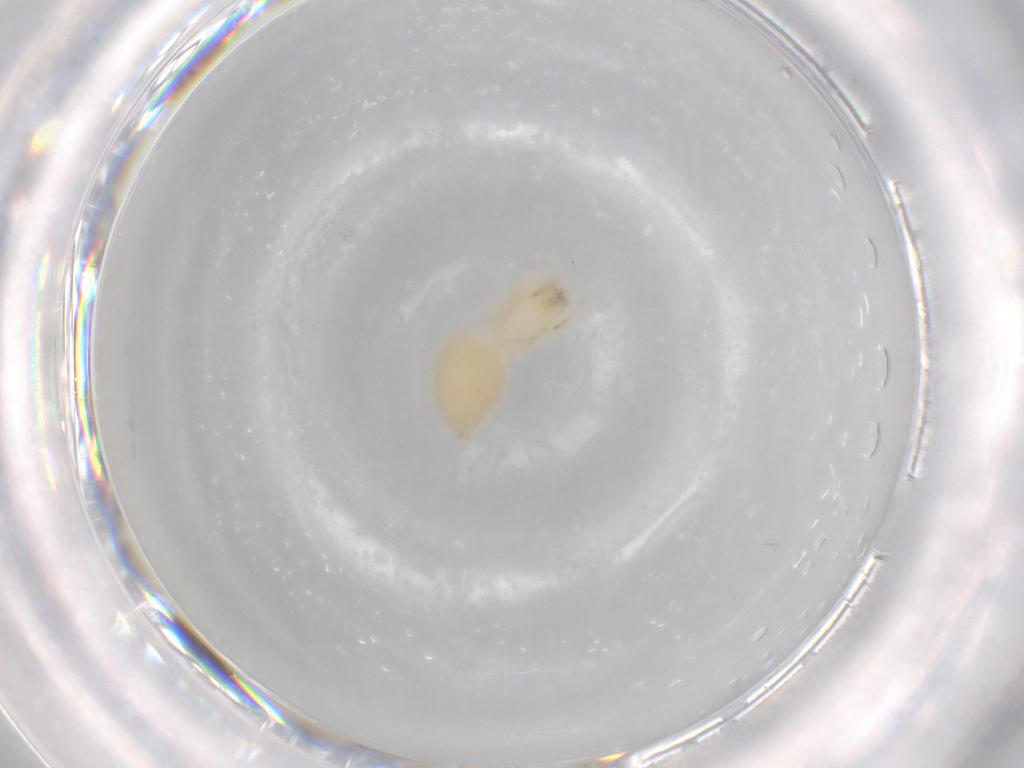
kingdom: Animalia
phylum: Arthropoda
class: Arachnida
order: Araneae
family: Anyphaenidae
